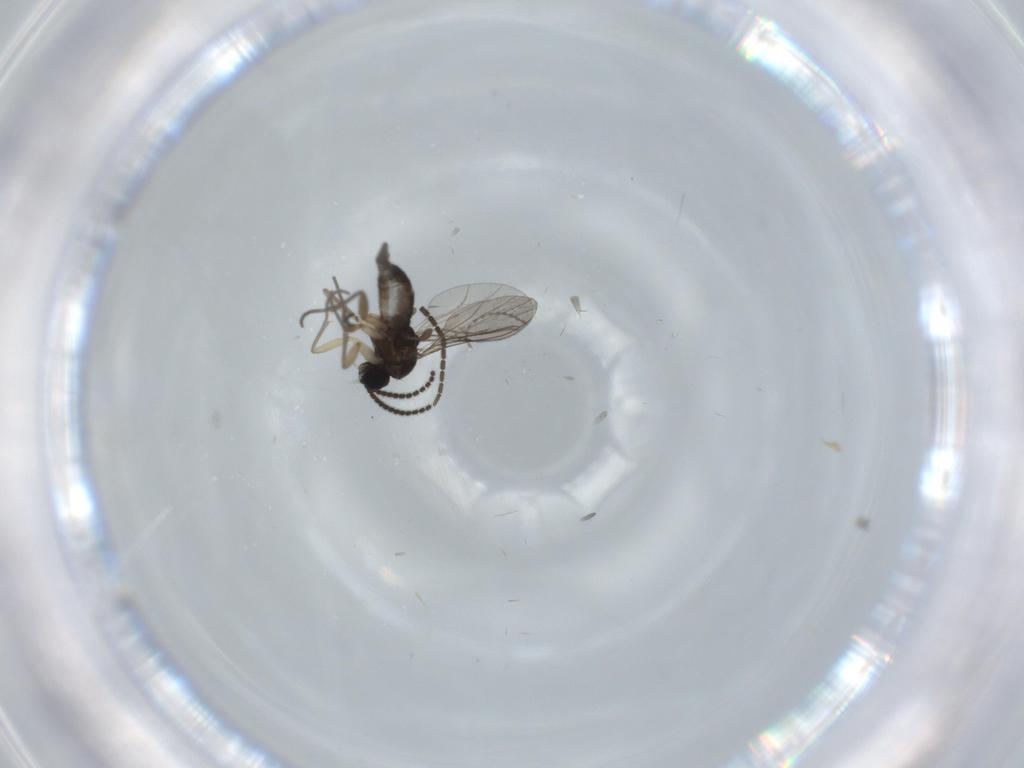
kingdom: Animalia
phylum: Arthropoda
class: Insecta
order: Diptera
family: Sciaridae
